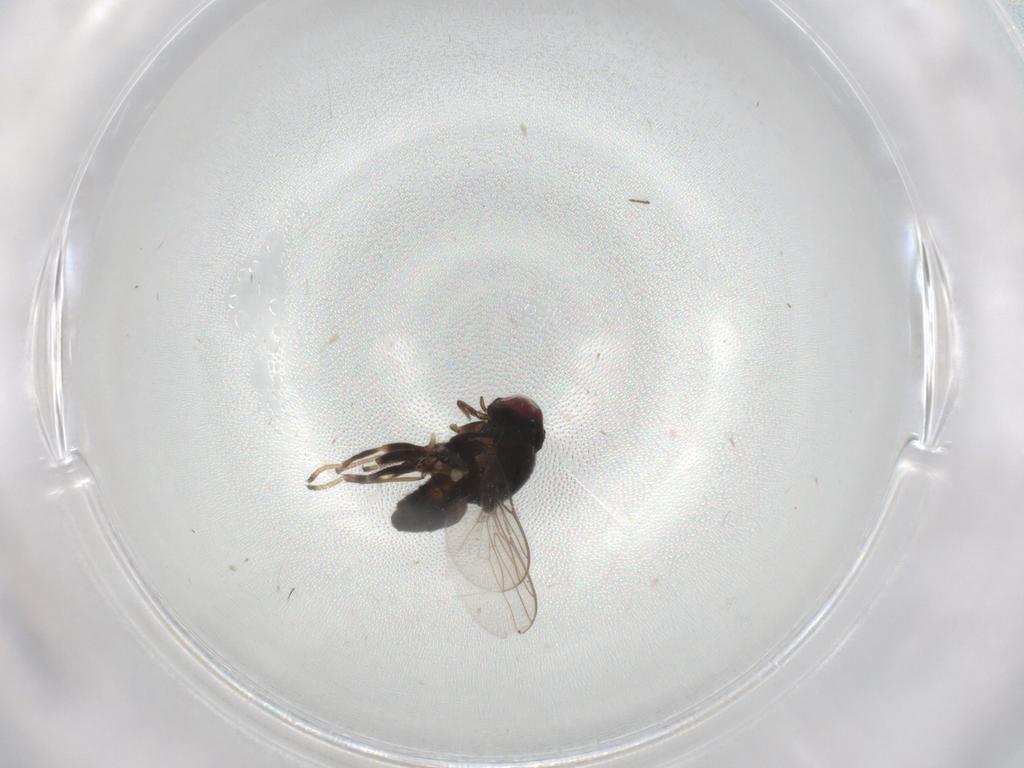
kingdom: Animalia
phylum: Arthropoda
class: Insecta
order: Diptera
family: Chloropidae
